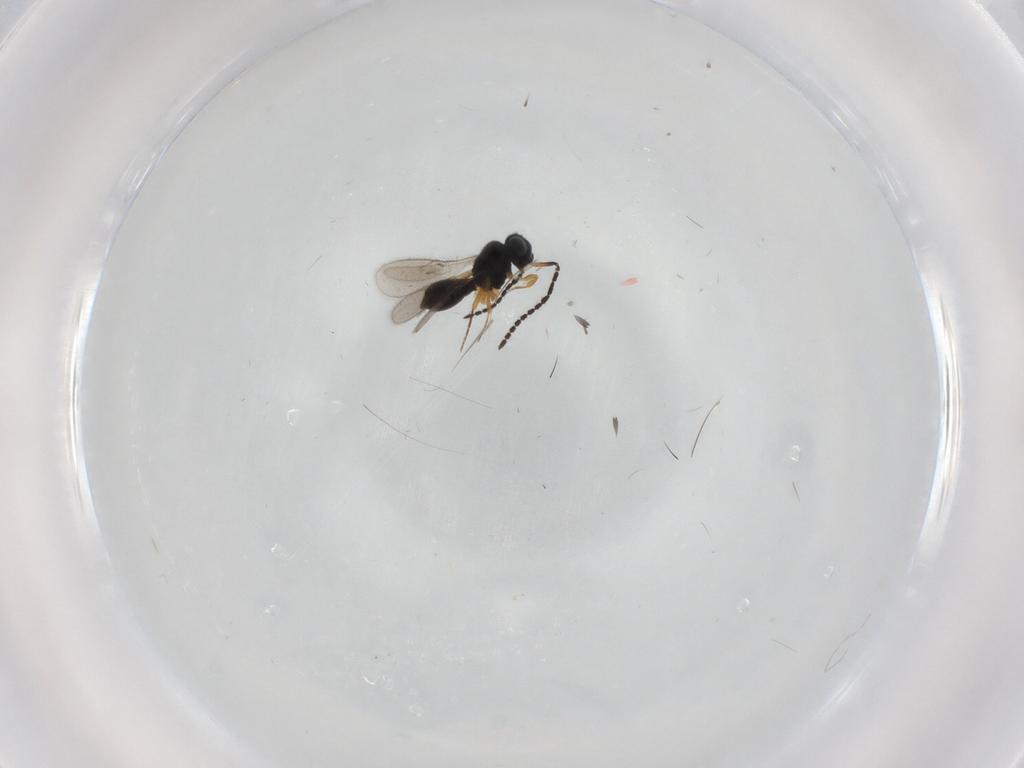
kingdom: Animalia
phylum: Arthropoda
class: Insecta
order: Hymenoptera
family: Scelionidae
